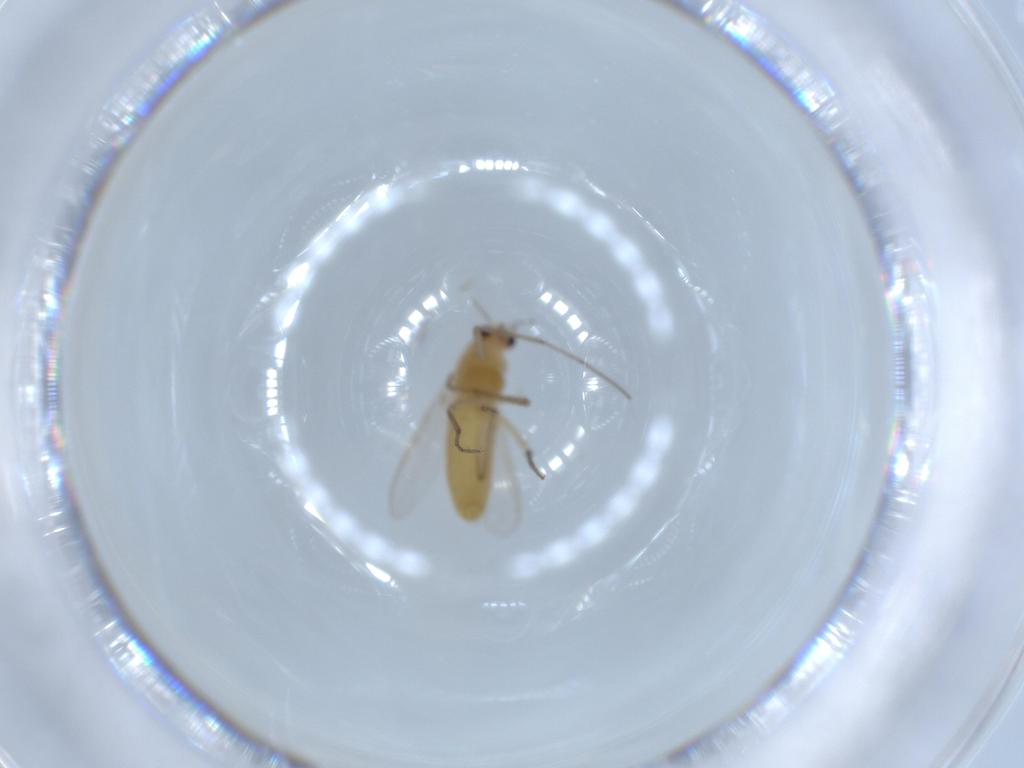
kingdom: Animalia
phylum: Arthropoda
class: Insecta
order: Diptera
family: Chironomidae
